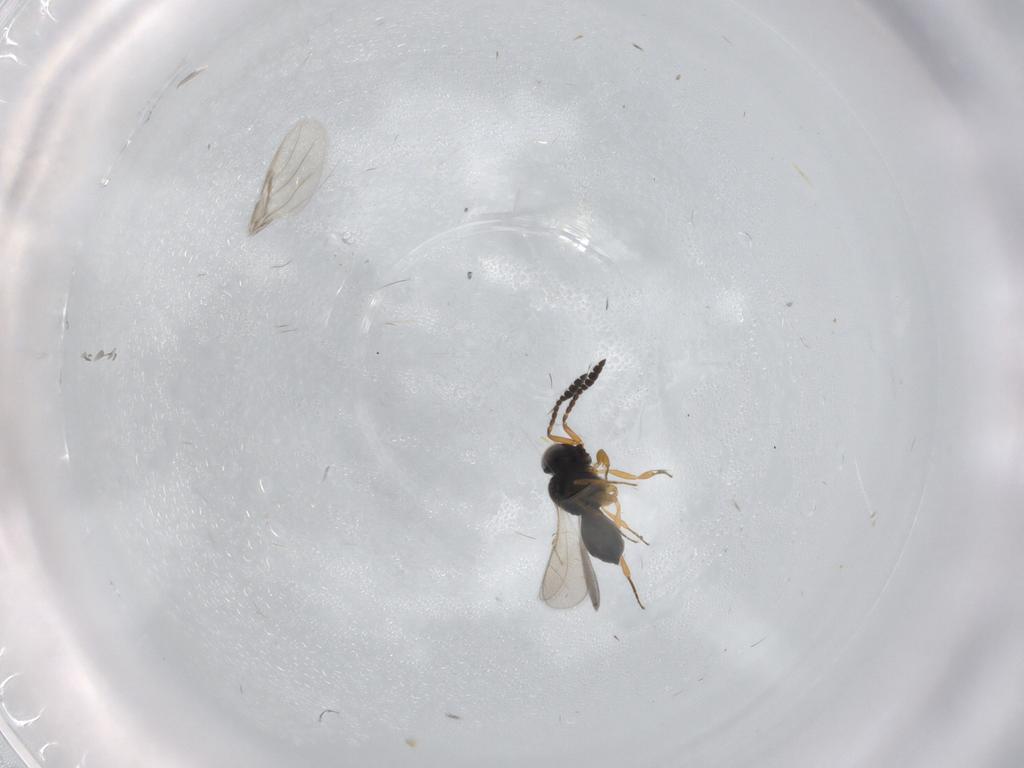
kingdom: Animalia
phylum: Arthropoda
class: Insecta
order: Hymenoptera
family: Scelionidae
